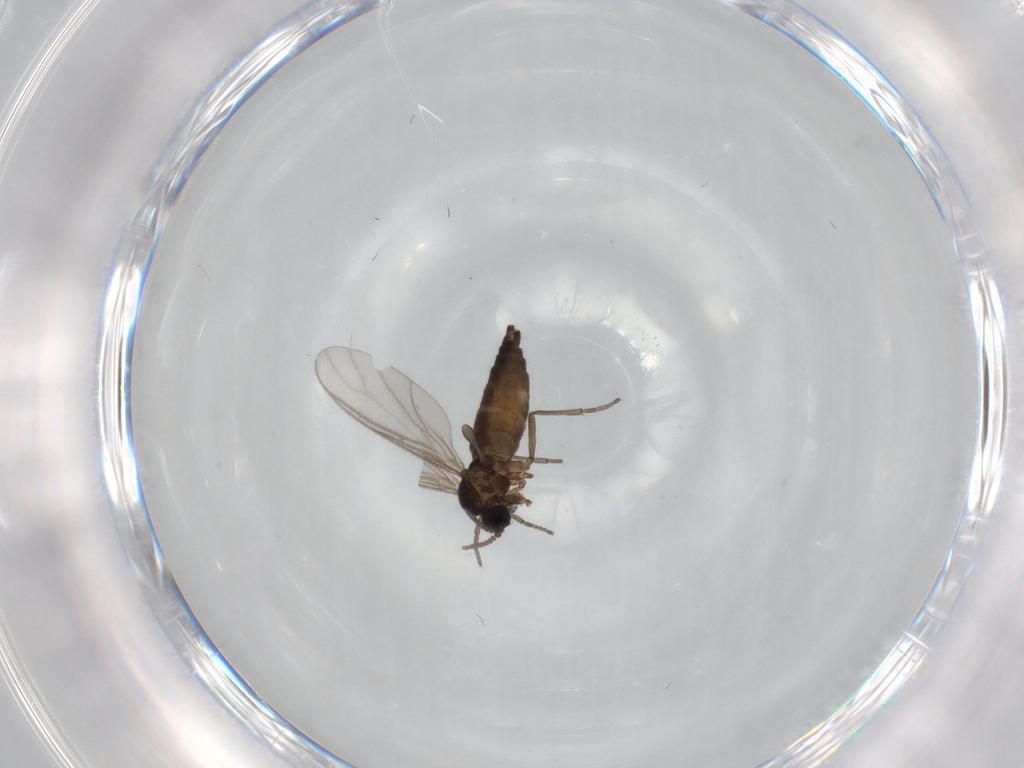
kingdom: Animalia
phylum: Arthropoda
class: Insecta
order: Diptera
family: Sciaridae
